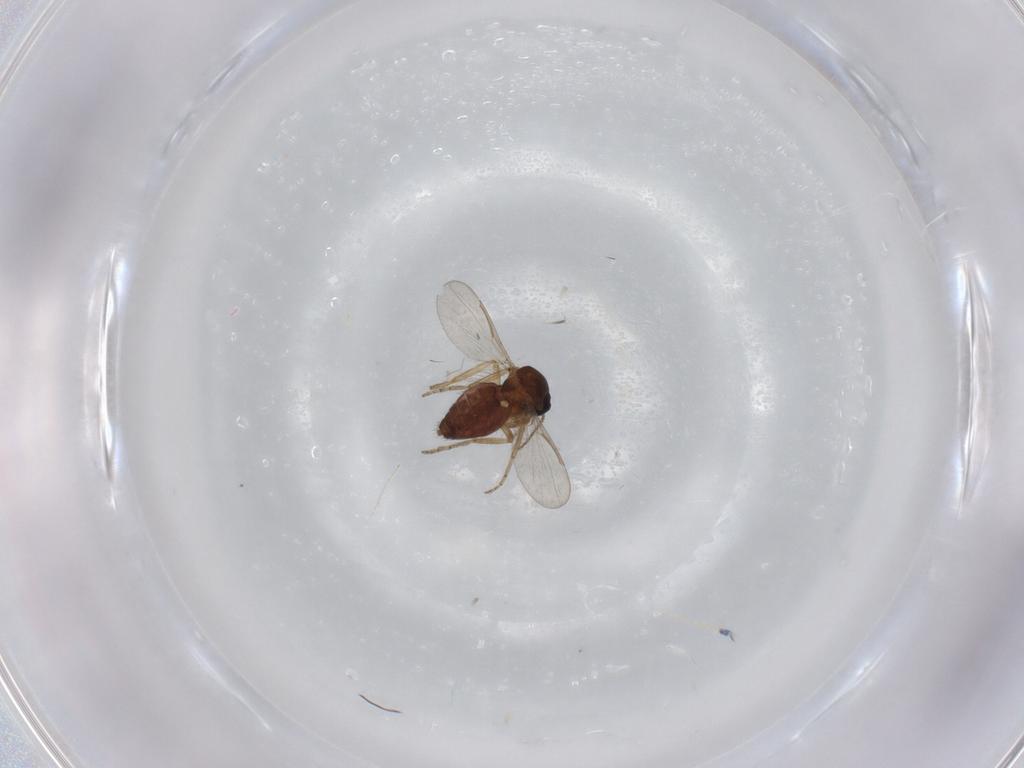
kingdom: Animalia
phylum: Arthropoda
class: Insecta
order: Diptera
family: Ceratopogonidae
